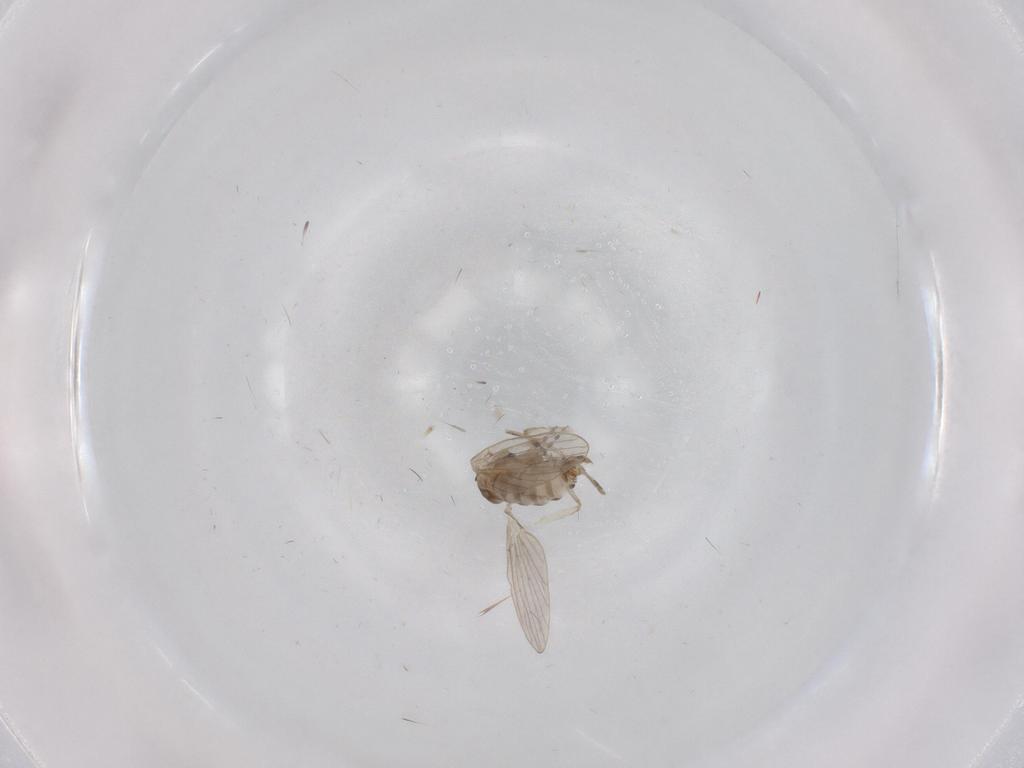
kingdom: Animalia
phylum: Arthropoda
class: Insecta
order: Diptera
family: Psychodidae
